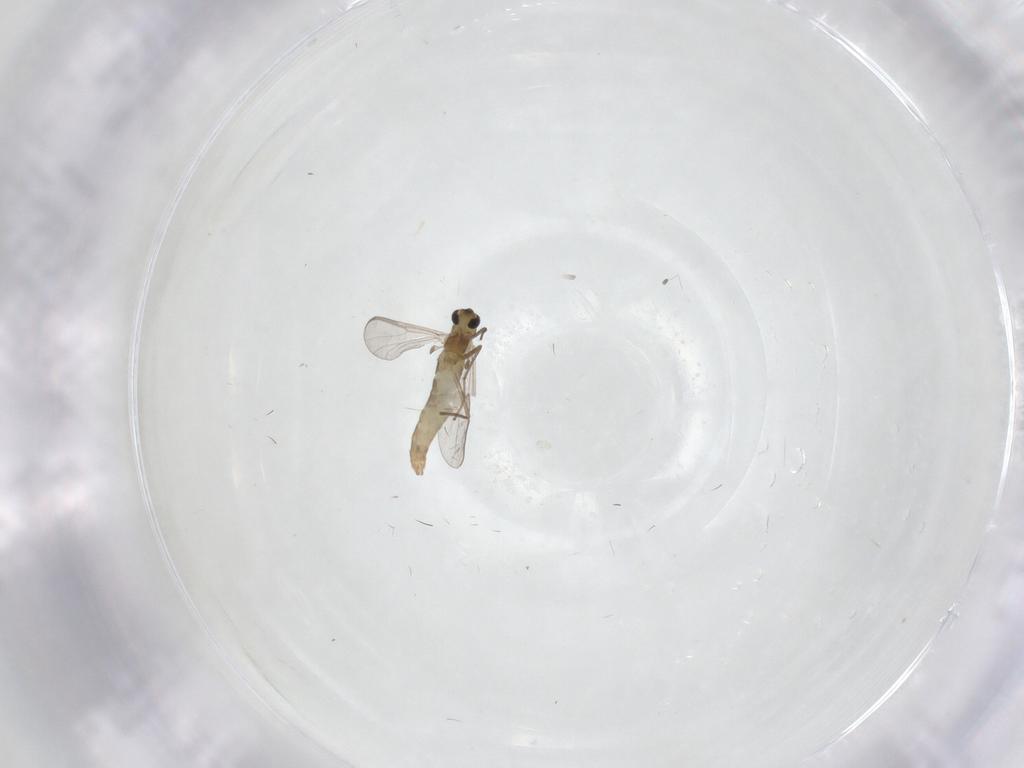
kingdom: Animalia
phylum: Arthropoda
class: Insecta
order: Diptera
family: Chironomidae
